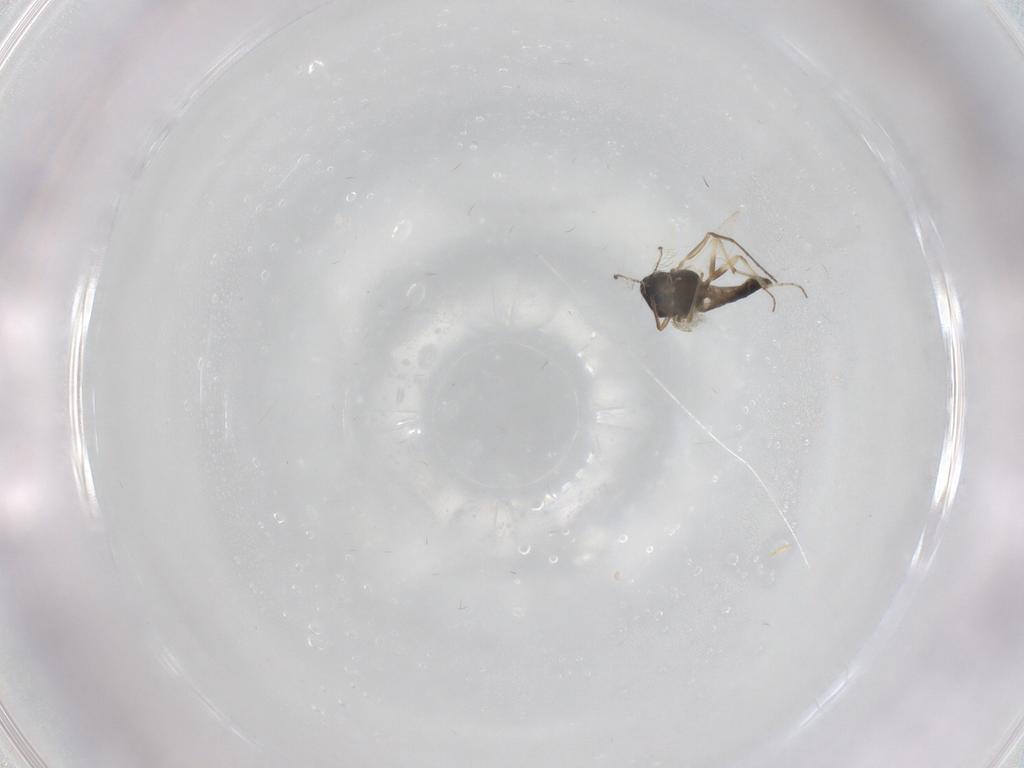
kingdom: Animalia
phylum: Arthropoda
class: Insecta
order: Diptera
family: Chironomidae
